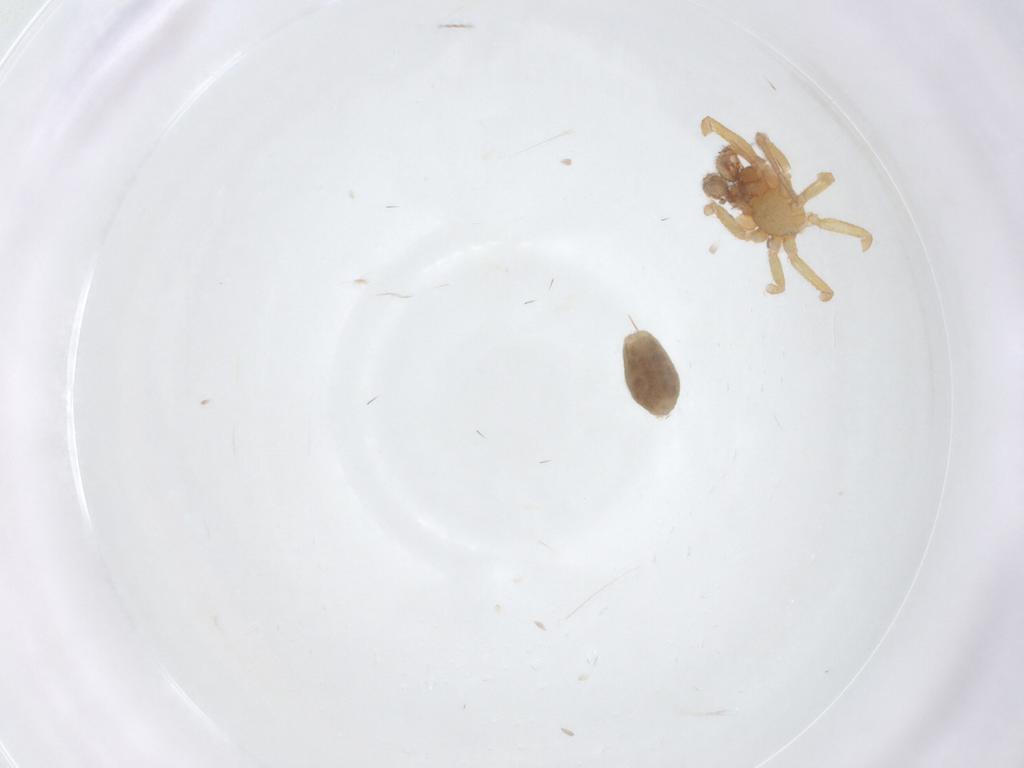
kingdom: Animalia
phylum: Arthropoda
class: Arachnida
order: Araneae
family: Linyphiidae
